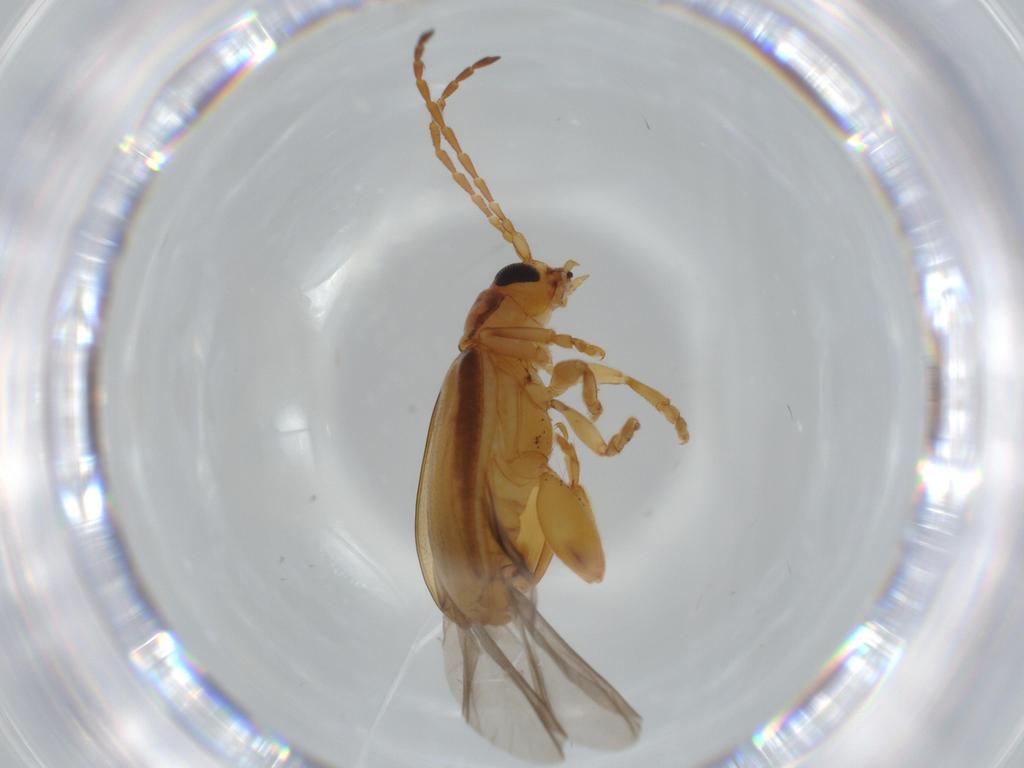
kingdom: Animalia
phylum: Arthropoda
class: Insecta
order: Coleoptera
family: Chrysomelidae
